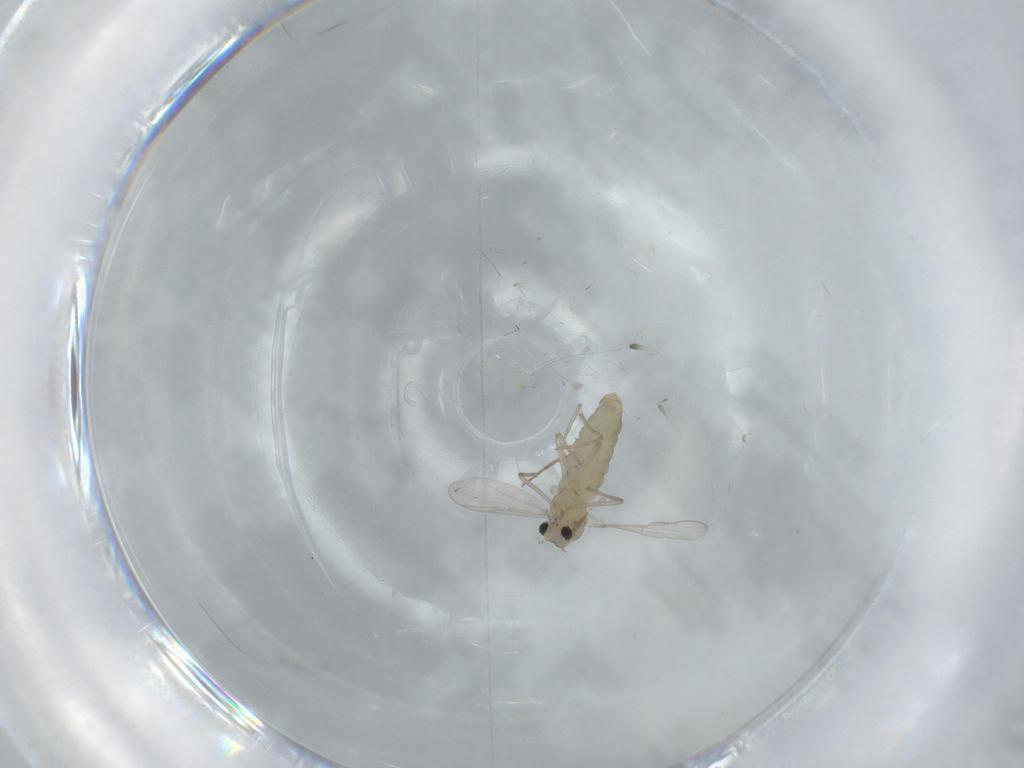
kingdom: Animalia
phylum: Arthropoda
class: Insecta
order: Diptera
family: Chironomidae
